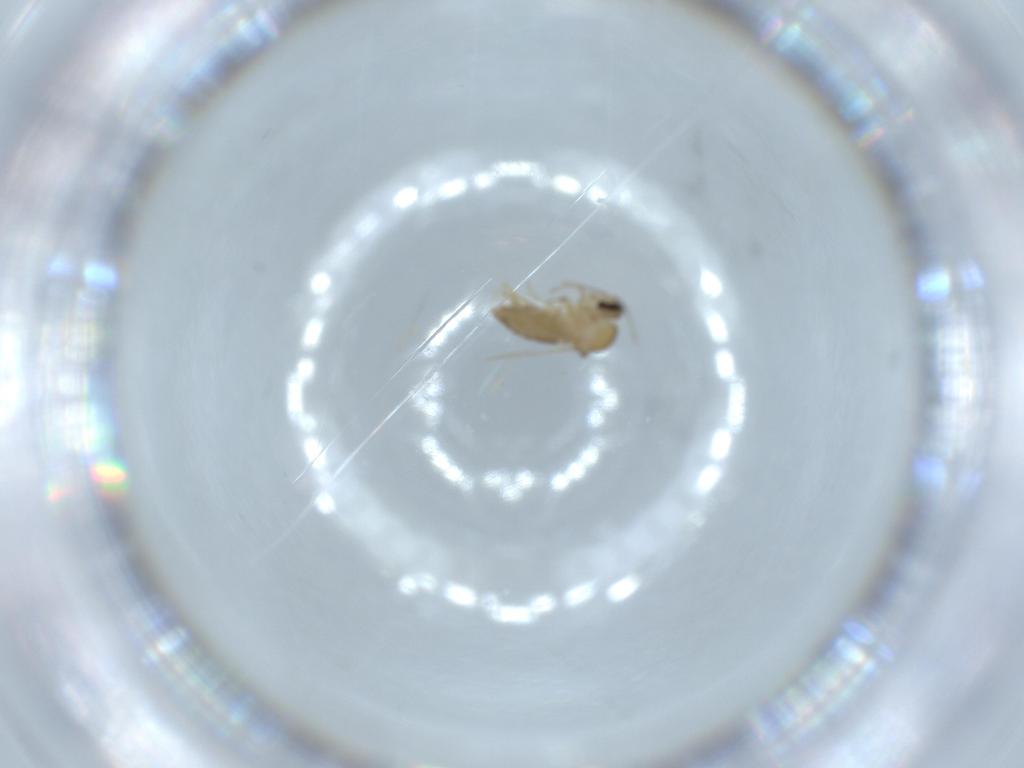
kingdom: Animalia
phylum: Arthropoda
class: Insecta
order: Diptera
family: Ceratopogonidae
